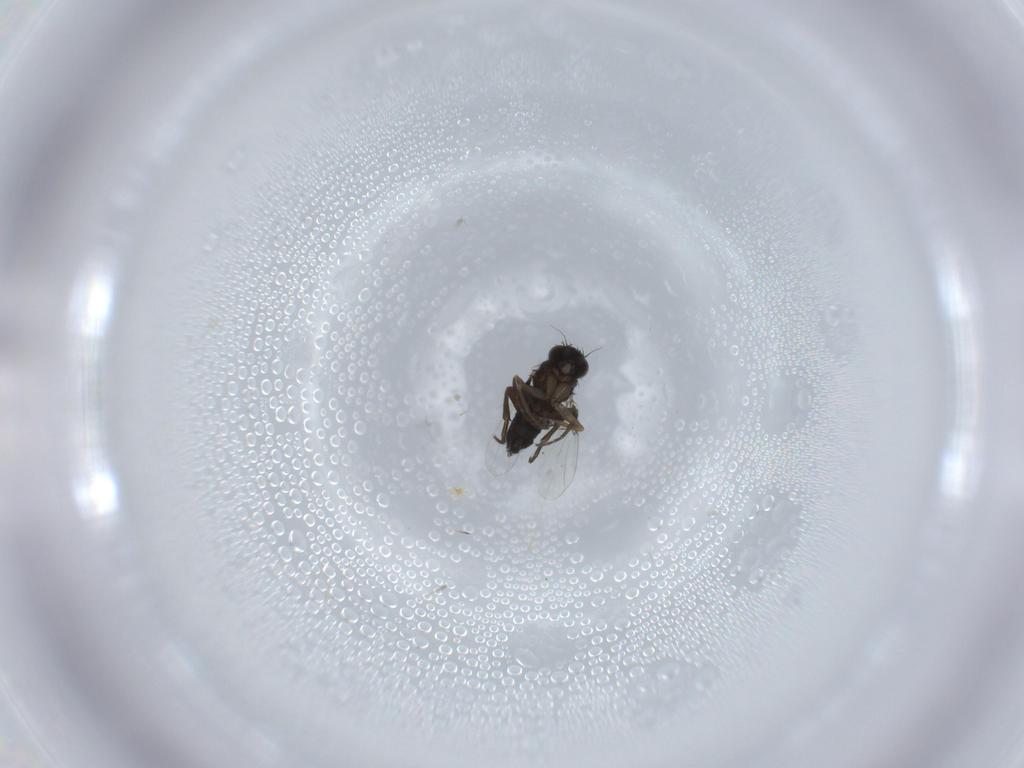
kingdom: Animalia
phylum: Arthropoda
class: Insecta
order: Diptera
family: Phoridae
